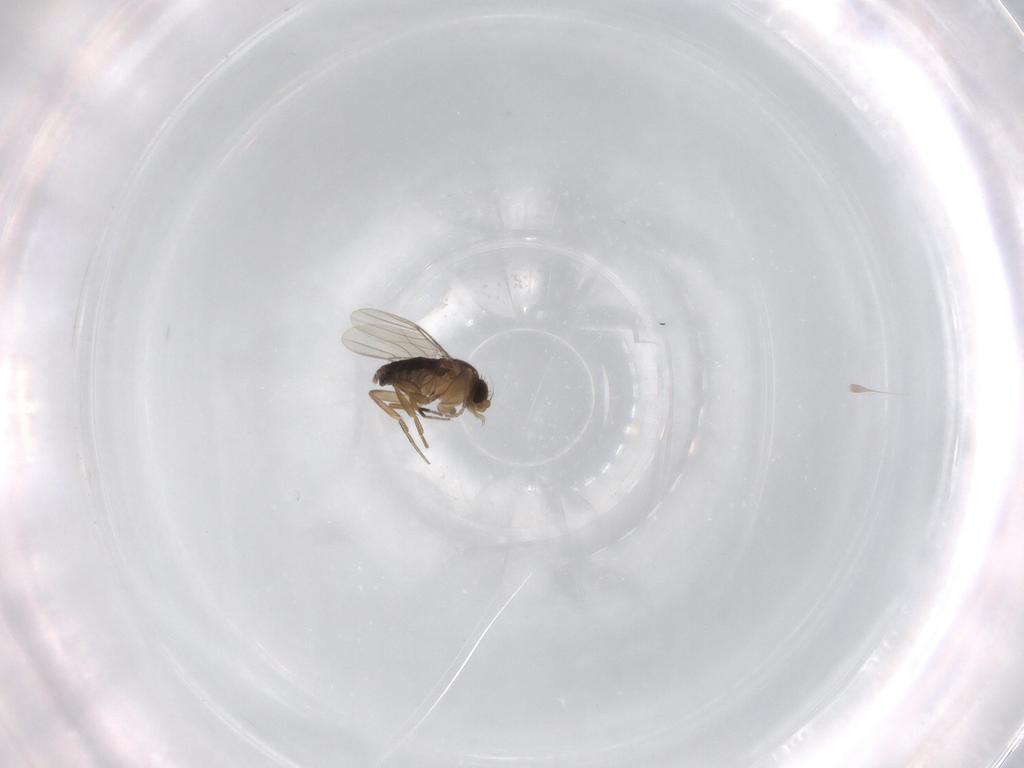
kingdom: Animalia
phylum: Arthropoda
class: Insecta
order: Diptera
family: Phoridae
